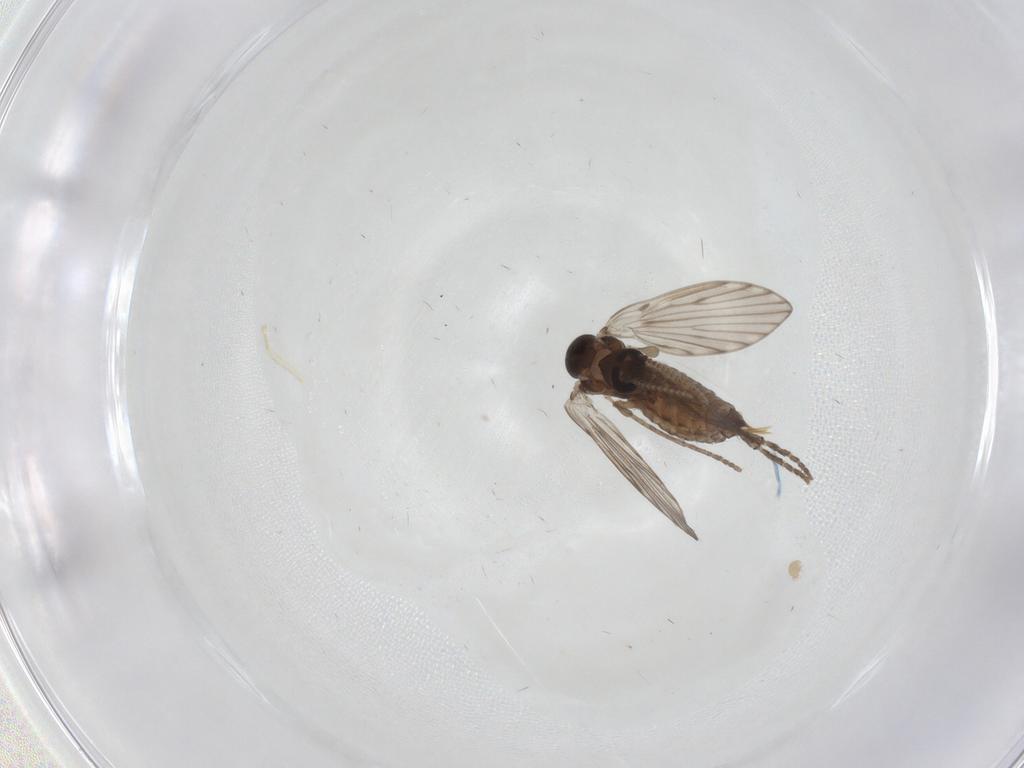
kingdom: Animalia
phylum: Arthropoda
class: Insecta
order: Diptera
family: Psychodidae
